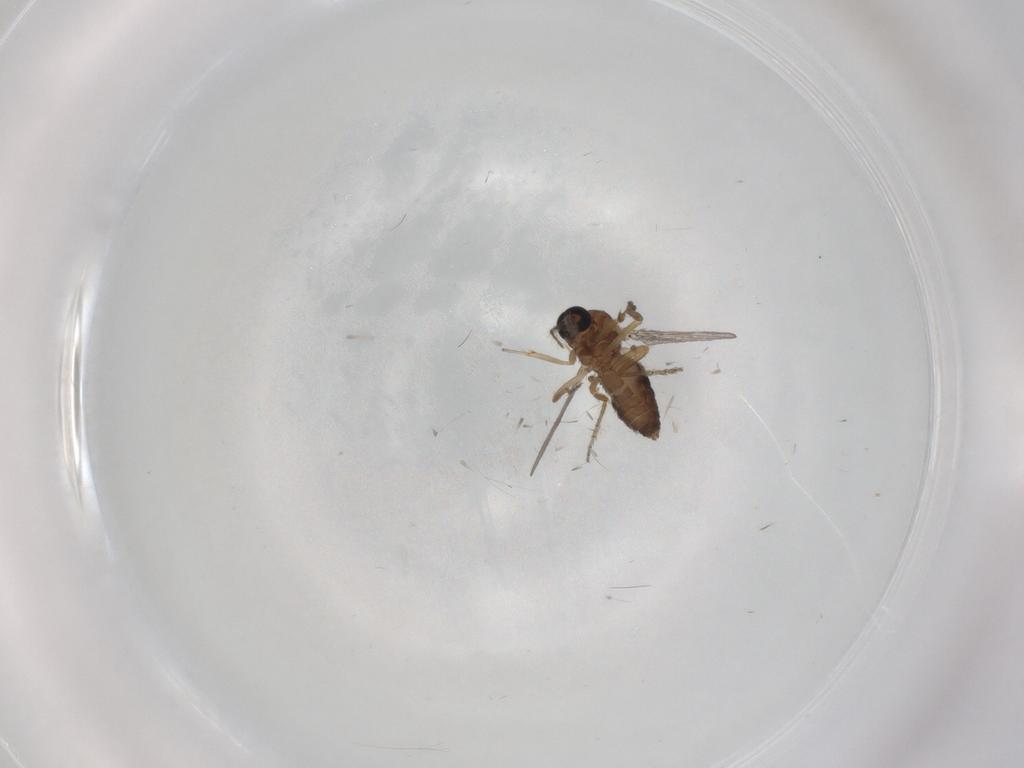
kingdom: Animalia
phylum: Arthropoda
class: Insecta
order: Diptera
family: Ceratopogonidae
